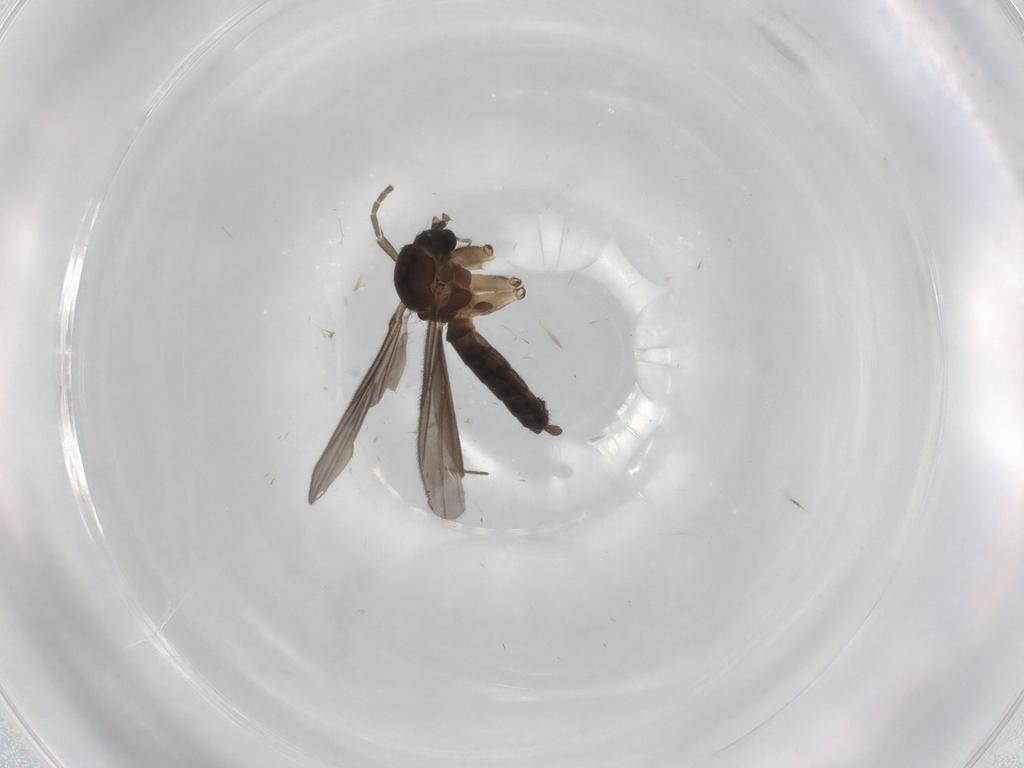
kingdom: Animalia
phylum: Arthropoda
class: Insecta
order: Diptera
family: Mycetophilidae
